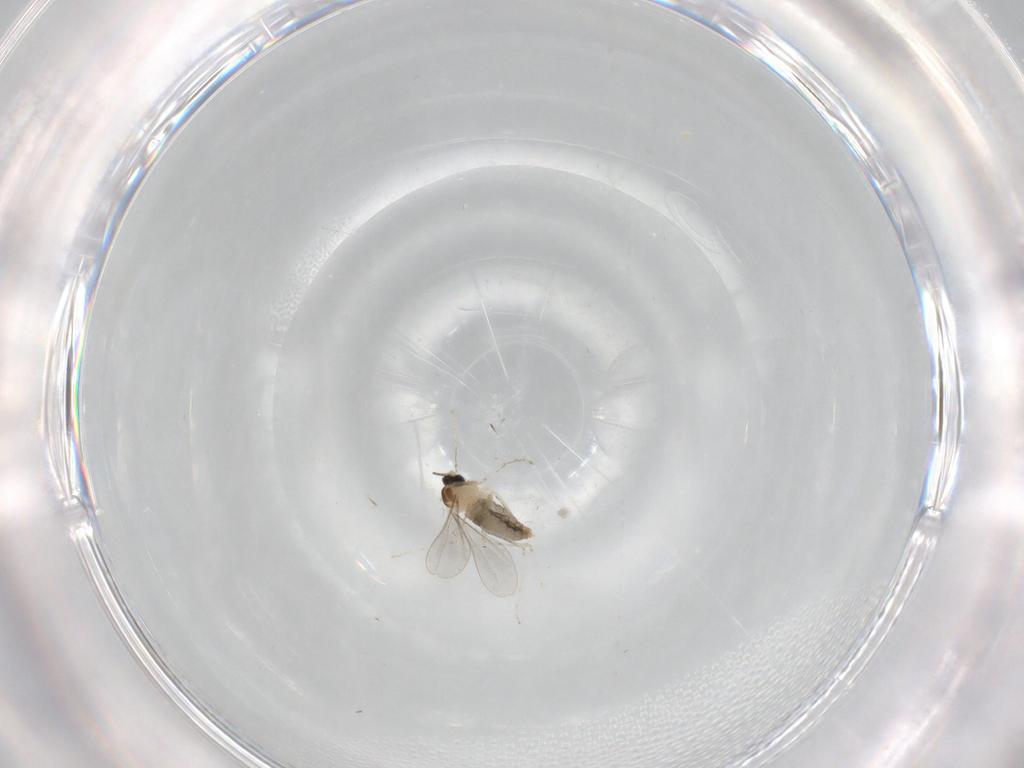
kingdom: Animalia
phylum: Arthropoda
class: Insecta
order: Diptera
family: Cecidomyiidae
